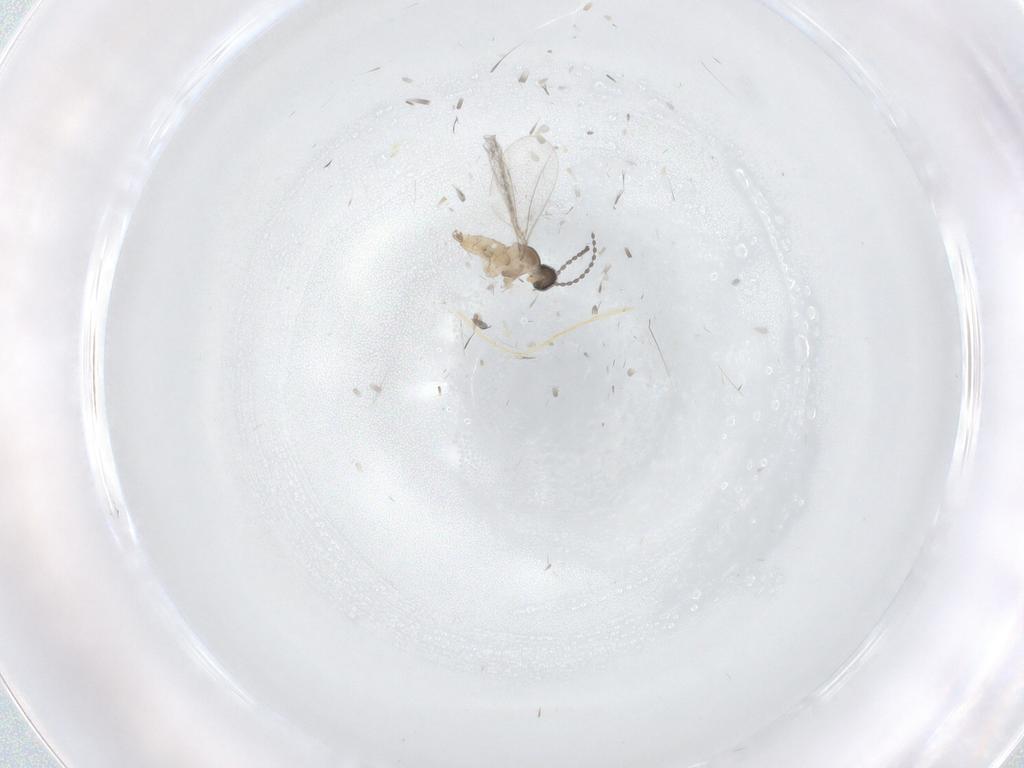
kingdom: Animalia
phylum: Arthropoda
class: Insecta
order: Diptera
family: Cecidomyiidae
